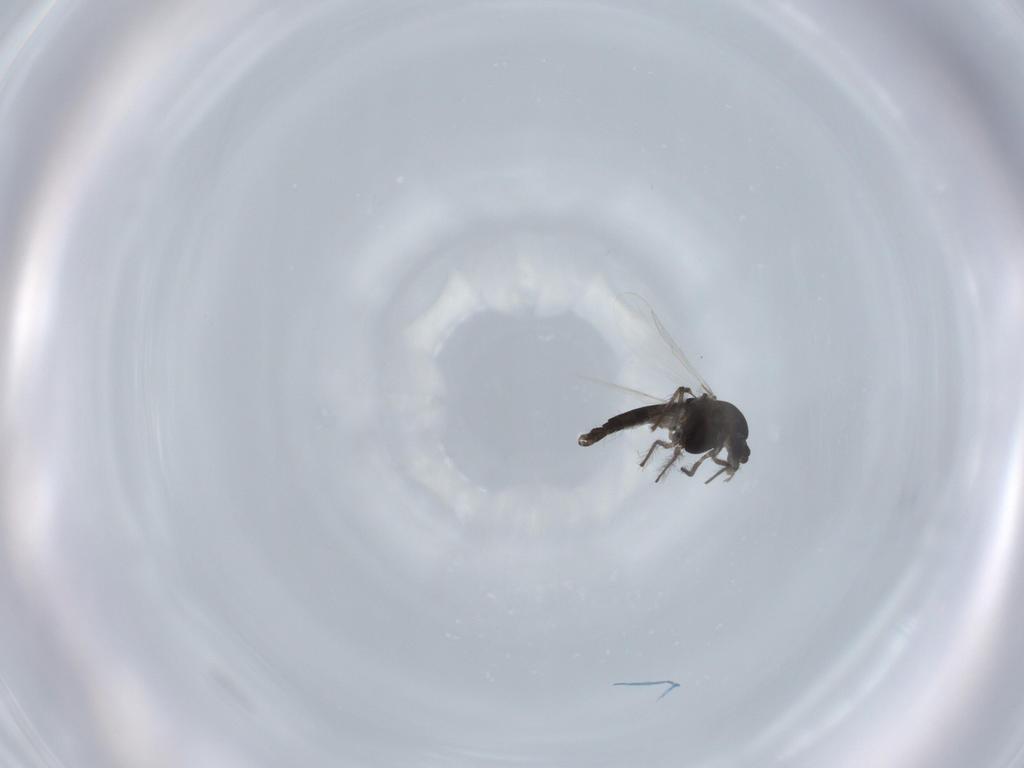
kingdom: Animalia
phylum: Arthropoda
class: Insecta
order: Diptera
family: Chironomidae
